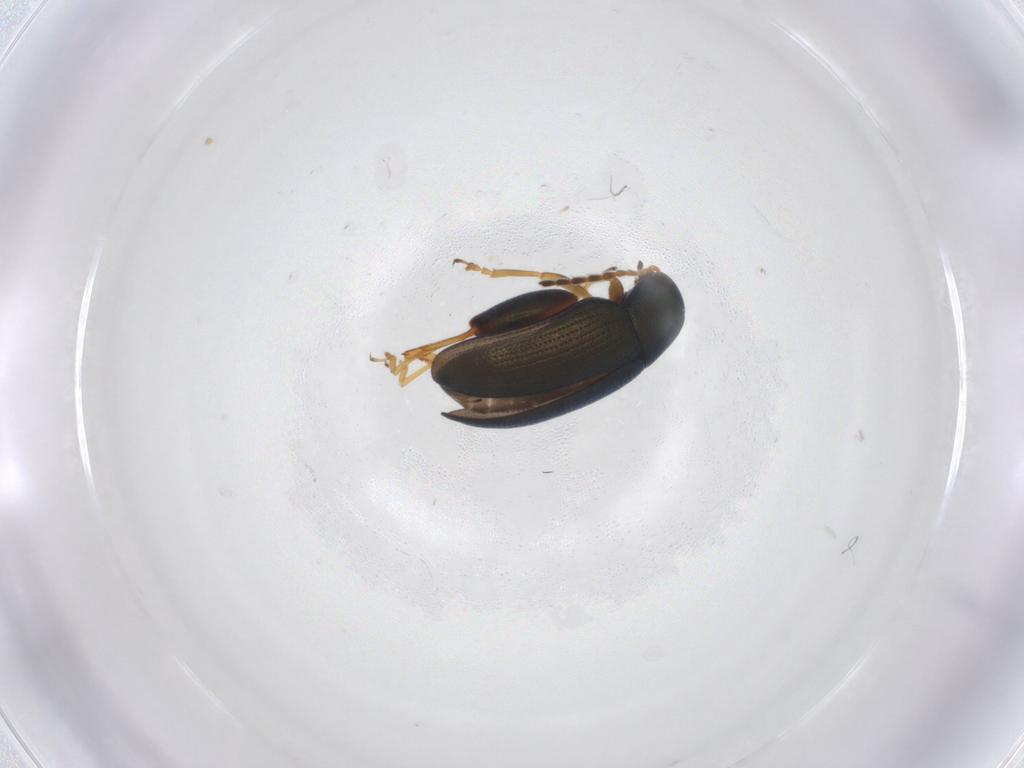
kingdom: Animalia
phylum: Arthropoda
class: Insecta
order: Coleoptera
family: Chrysomelidae
